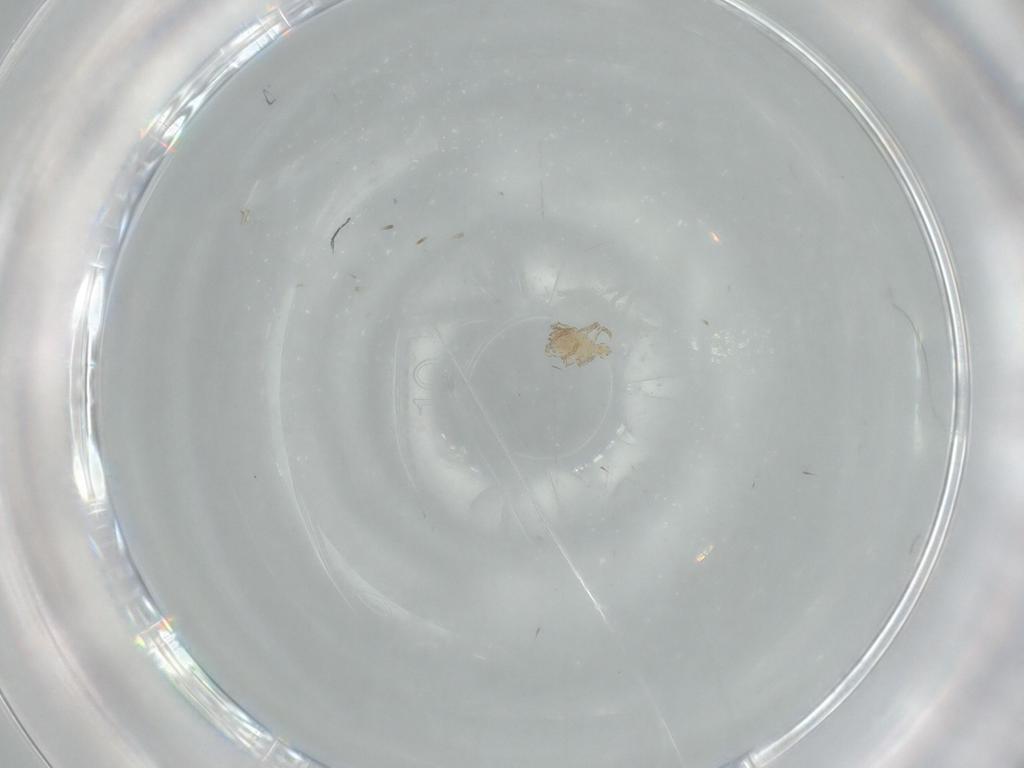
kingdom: Animalia
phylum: Arthropoda
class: Arachnida
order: Trombidiformes
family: Erythraeidae
